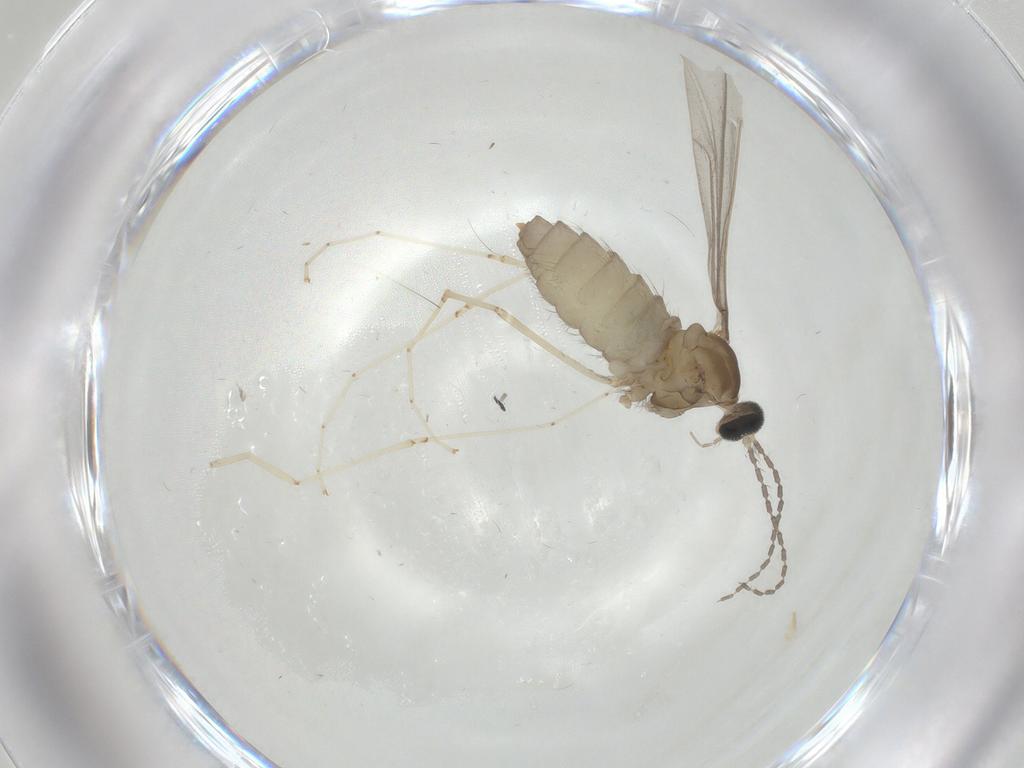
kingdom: Animalia
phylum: Arthropoda
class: Insecta
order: Diptera
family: Cecidomyiidae
